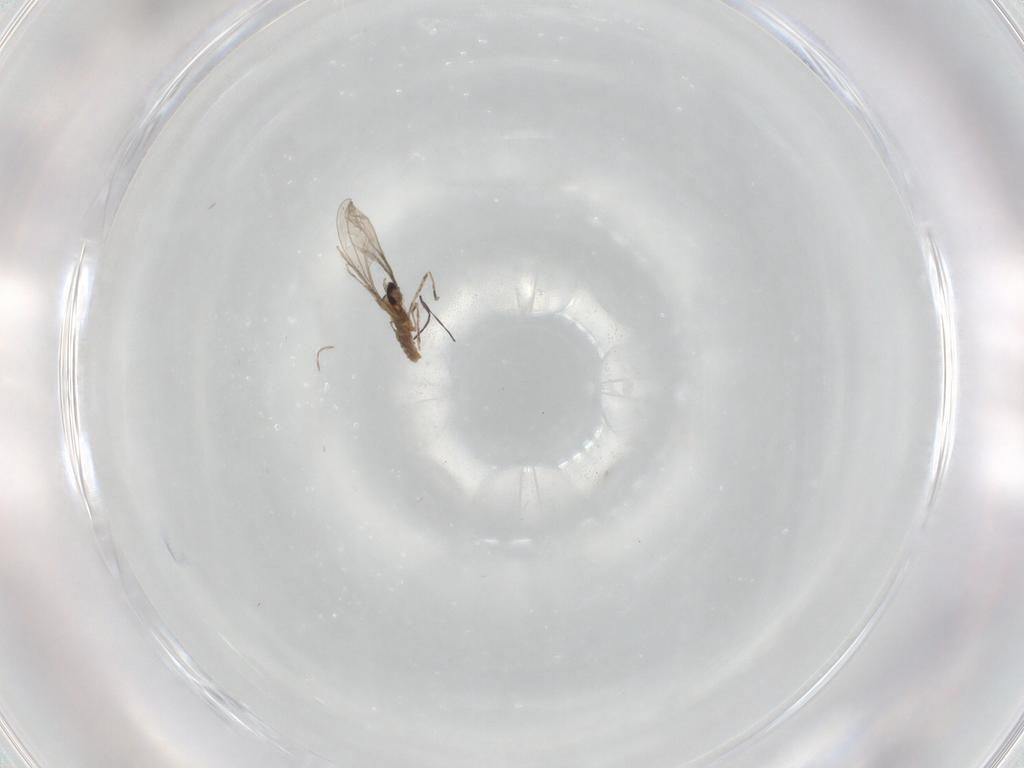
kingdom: Animalia
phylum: Arthropoda
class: Insecta
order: Diptera
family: Cecidomyiidae
